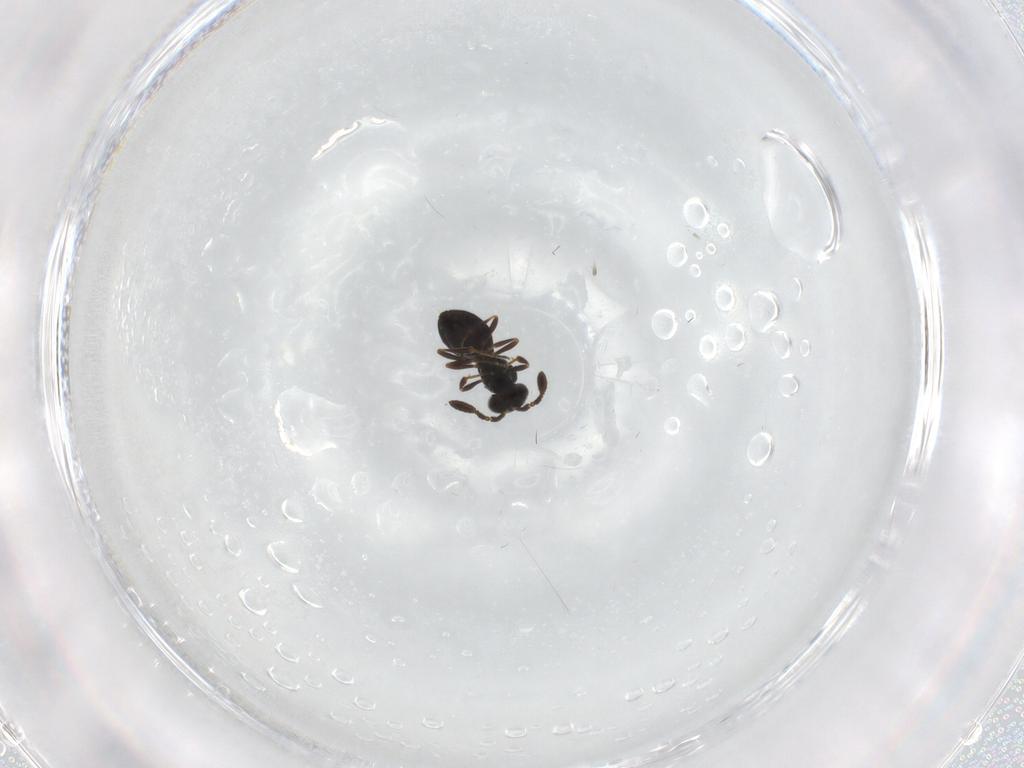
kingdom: Animalia
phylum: Arthropoda
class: Insecta
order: Hymenoptera
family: Scelionidae
